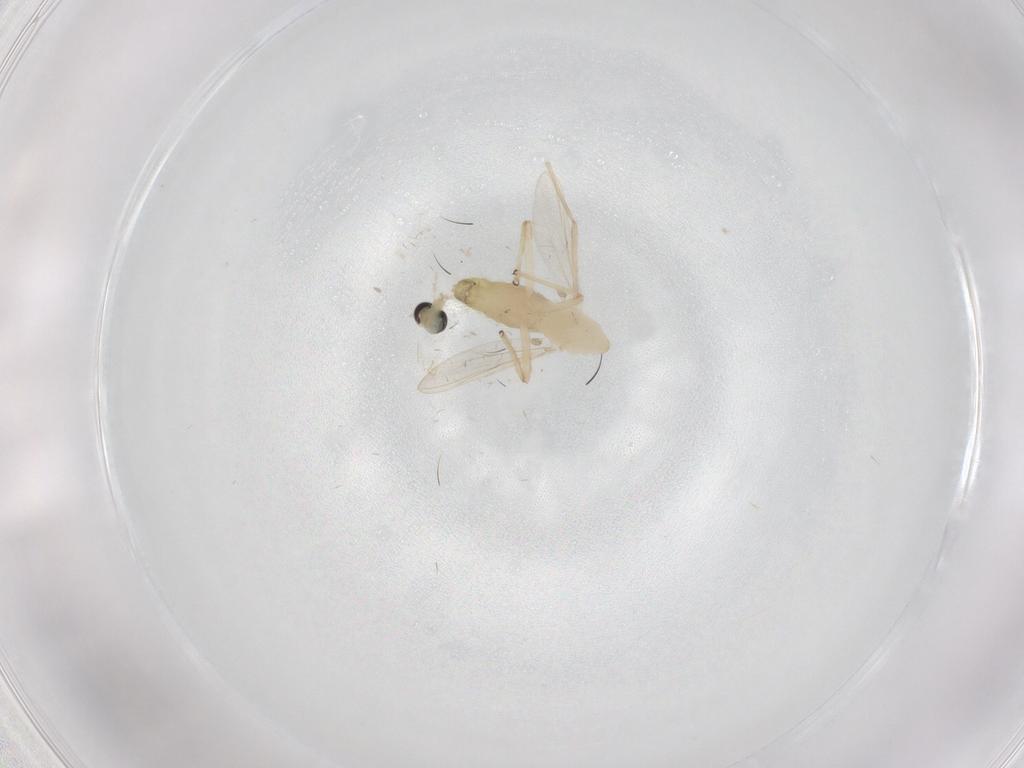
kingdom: Animalia
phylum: Arthropoda
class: Insecta
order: Diptera
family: Chironomidae
